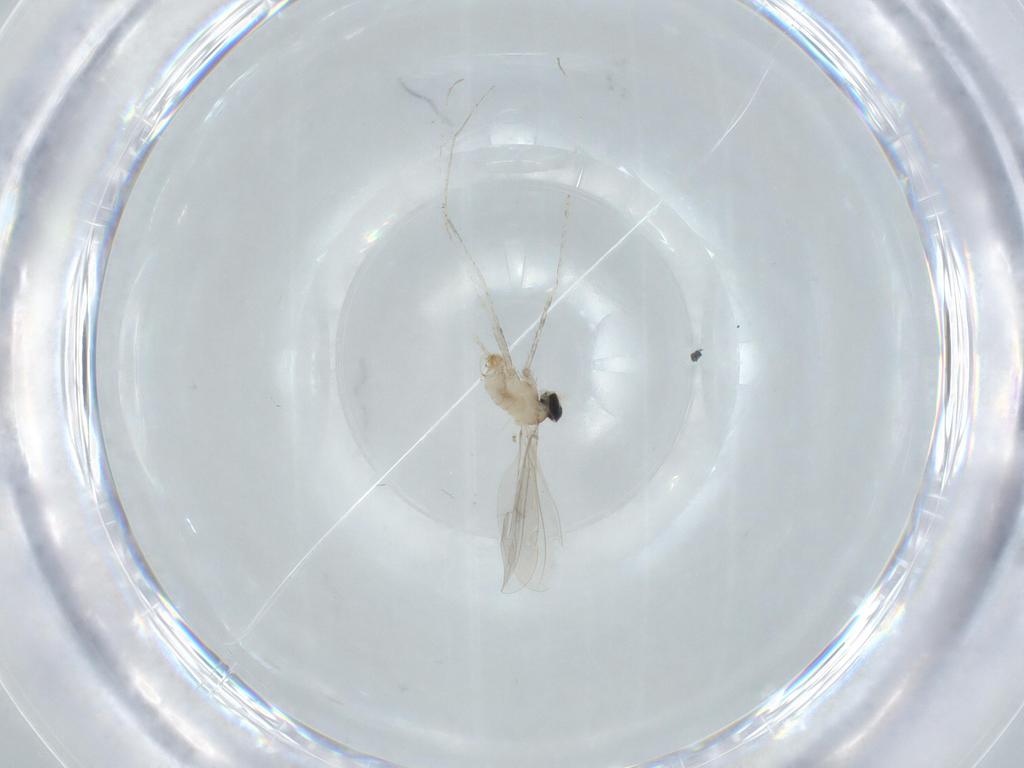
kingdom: Animalia
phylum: Arthropoda
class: Insecta
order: Diptera
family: Cecidomyiidae
